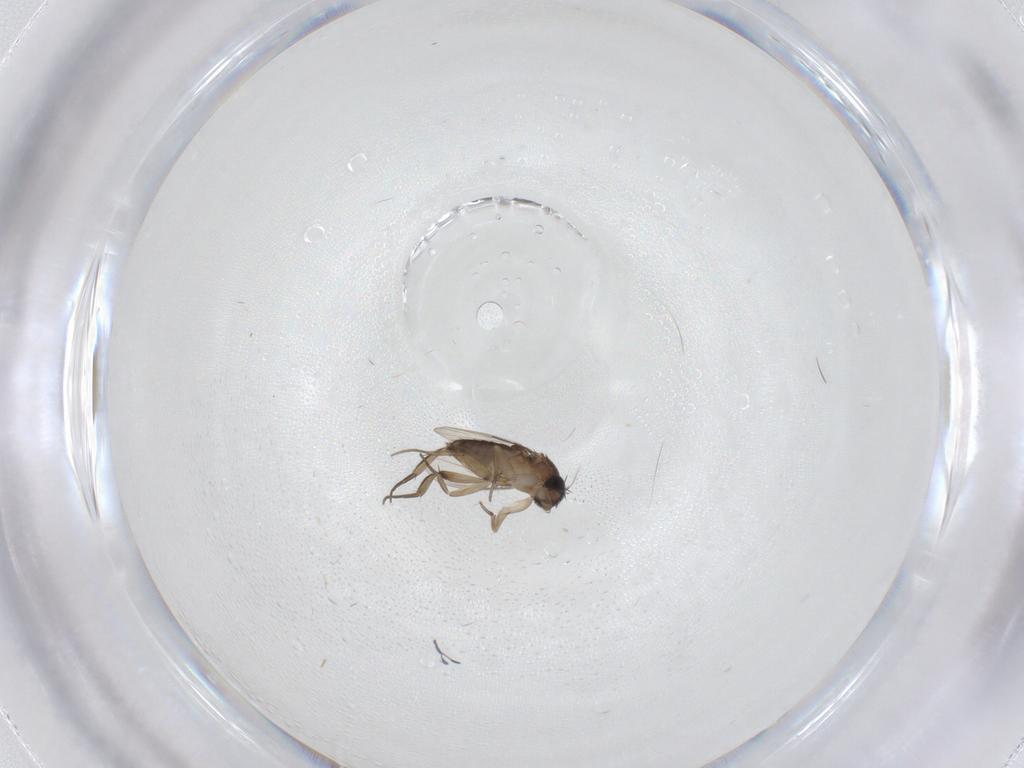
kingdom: Animalia
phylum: Arthropoda
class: Insecta
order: Diptera
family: Phoridae
